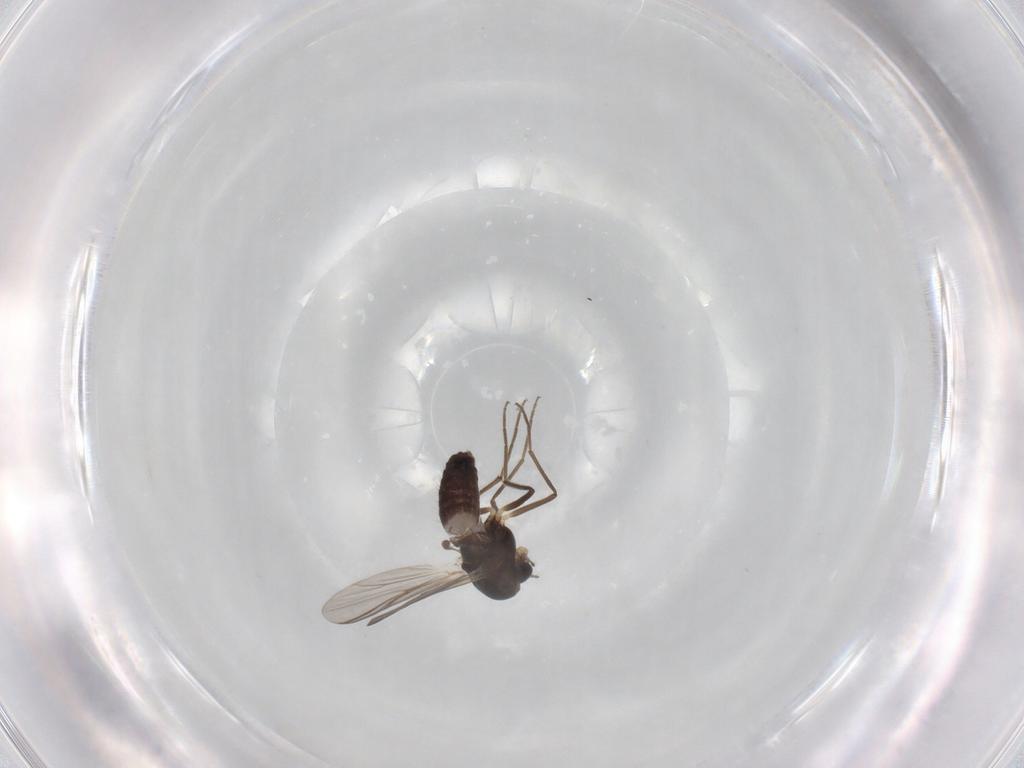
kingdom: Animalia
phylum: Arthropoda
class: Insecta
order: Diptera
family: Chironomidae
